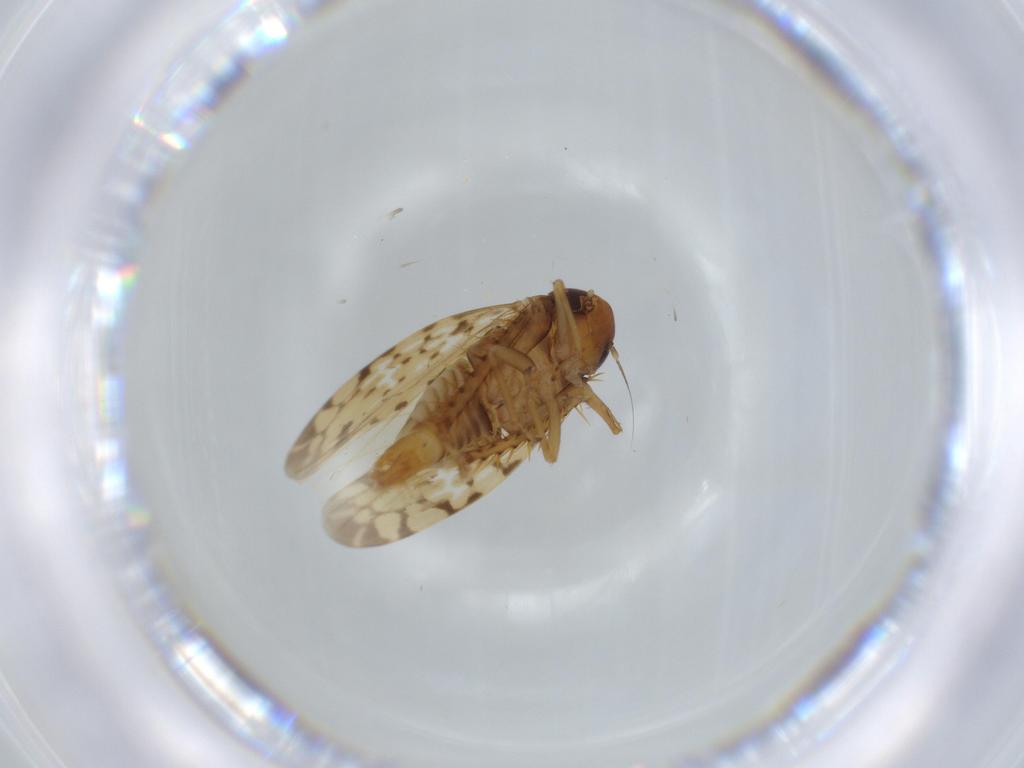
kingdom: Animalia
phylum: Arthropoda
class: Insecta
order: Hemiptera
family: Cicadellidae
